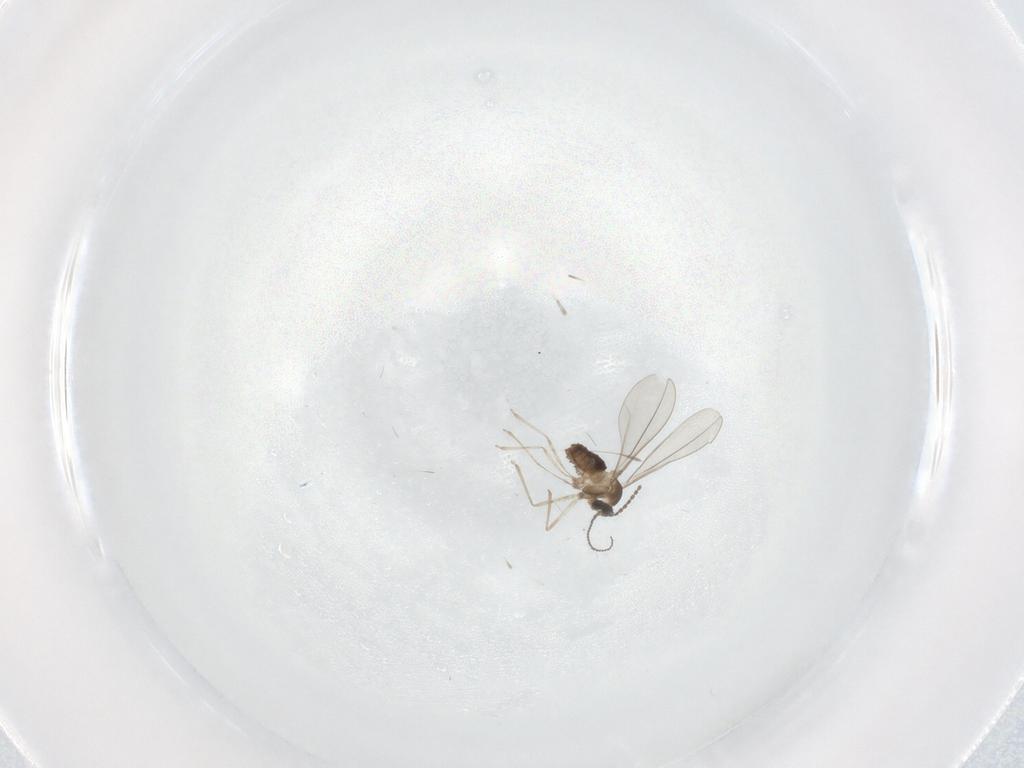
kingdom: Animalia
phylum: Arthropoda
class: Insecta
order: Diptera
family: Cecidomyiidae
